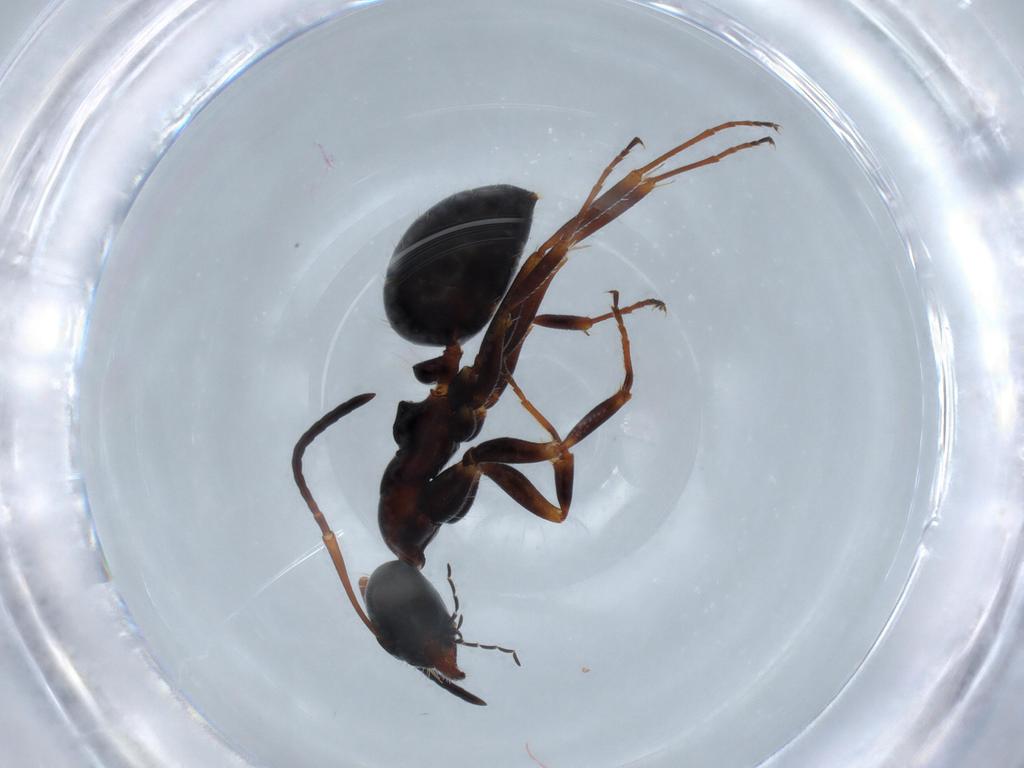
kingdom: Animalia
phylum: Arthropoda
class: Insecta
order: Hymenoptera
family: Formicidae
